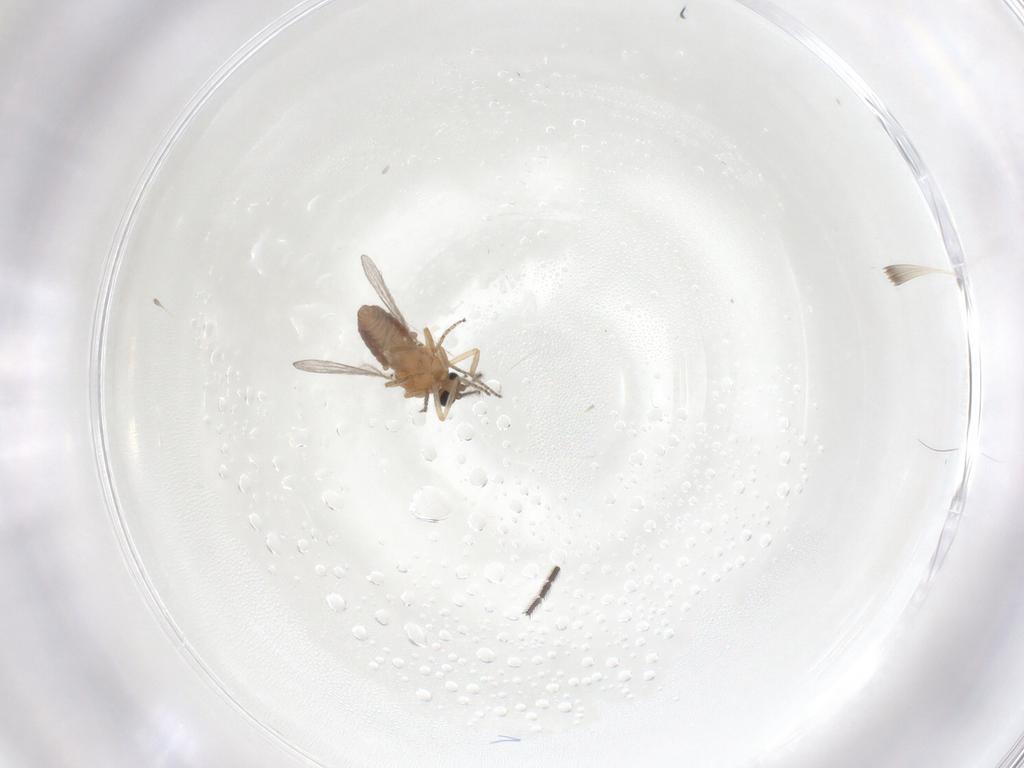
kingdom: Animalia
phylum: Arthropoda
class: Insecta
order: Diptera
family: Ceratopogonidae
